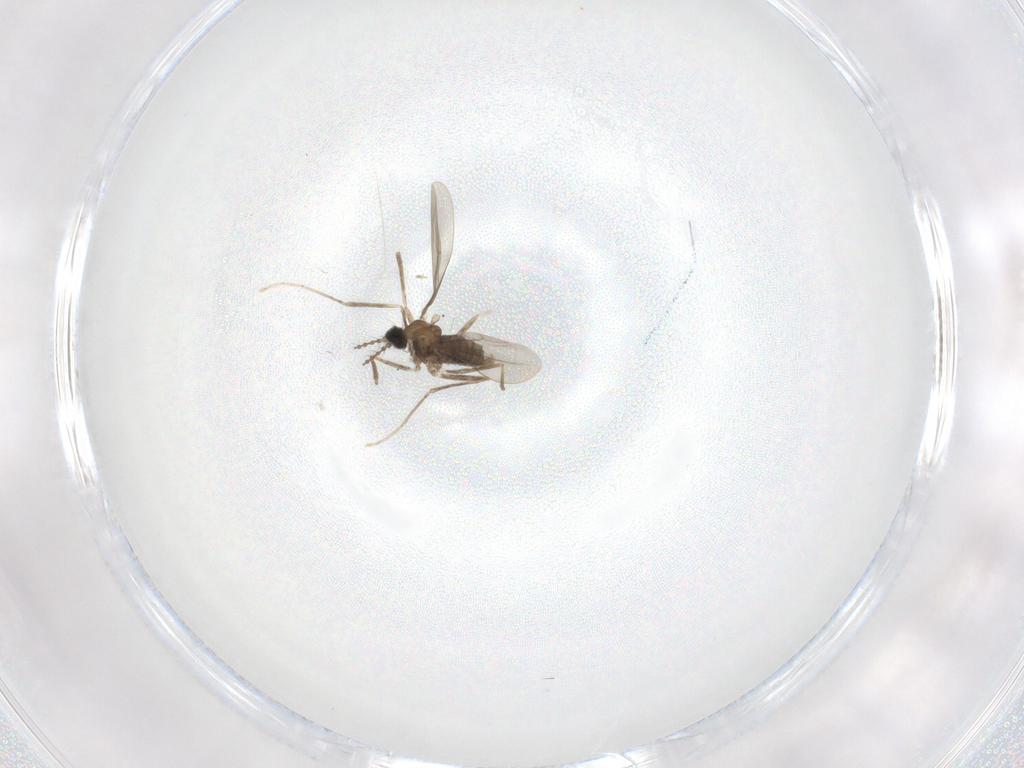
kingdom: Animalia
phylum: Arthropoda
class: Insecta
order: Diptera
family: Cecidomyiidae
